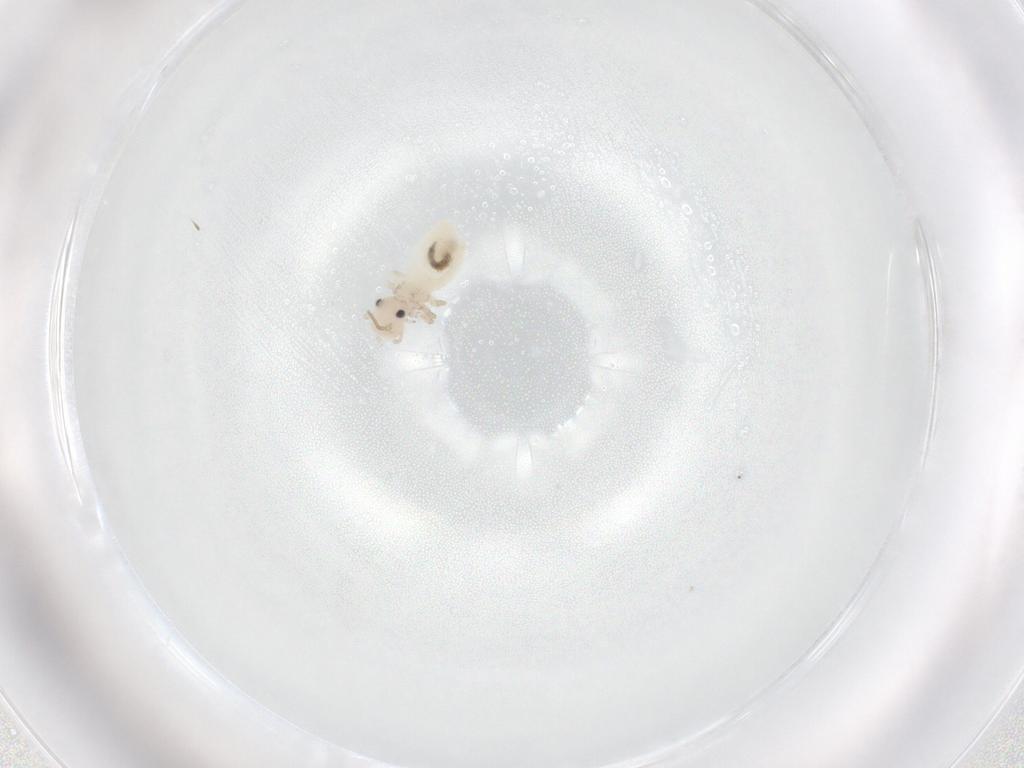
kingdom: Animalia
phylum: Arthropoda
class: Insecta
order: Psocodea
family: Caeciliusidae
